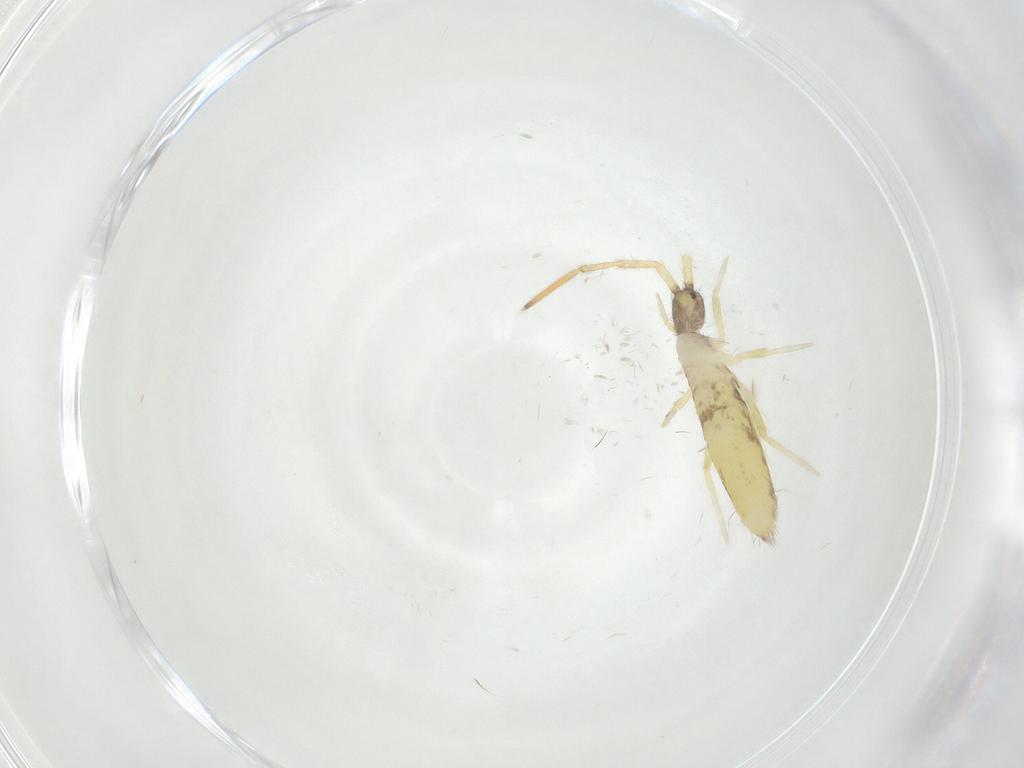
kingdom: Animalia
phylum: Arthropoda
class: Collembola
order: Entomobryomorpha
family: Entomobryidae
